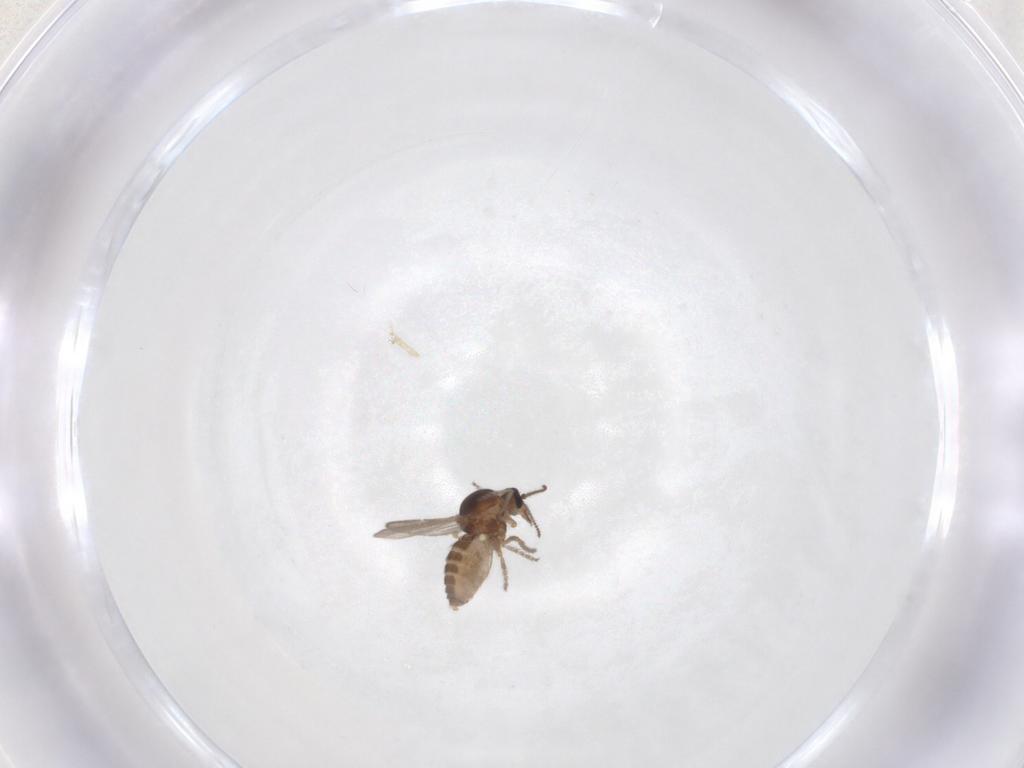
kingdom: Animalia
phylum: Arthropoda
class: Insecta
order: Diptera
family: Ceratopogonidae
